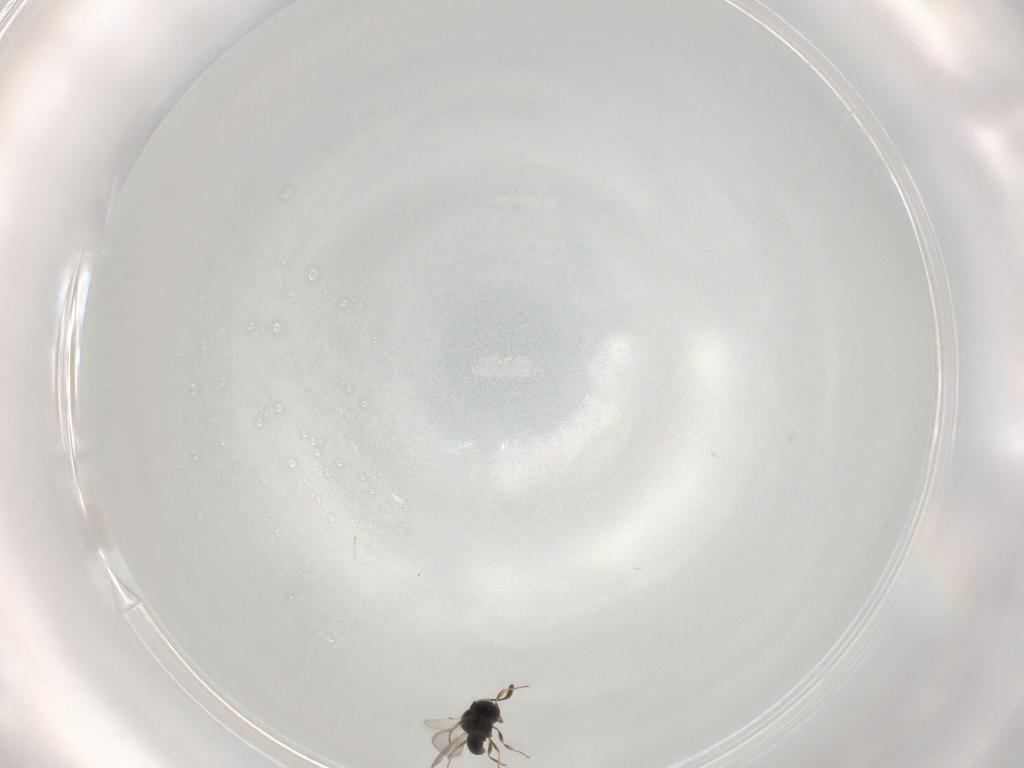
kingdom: Animalia
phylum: Arthropoda
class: Insecta
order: Hymenoptera
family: Scelionidae
